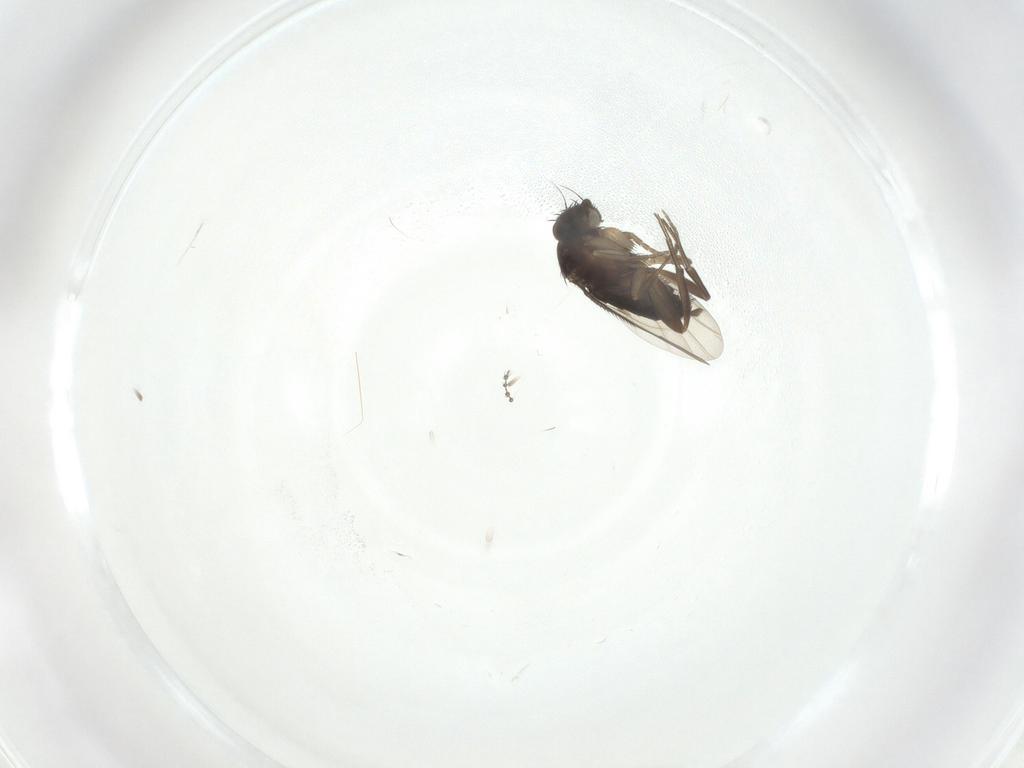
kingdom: Animalia
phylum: Arthropoda
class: Insecta
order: Diptera
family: Phoridae
